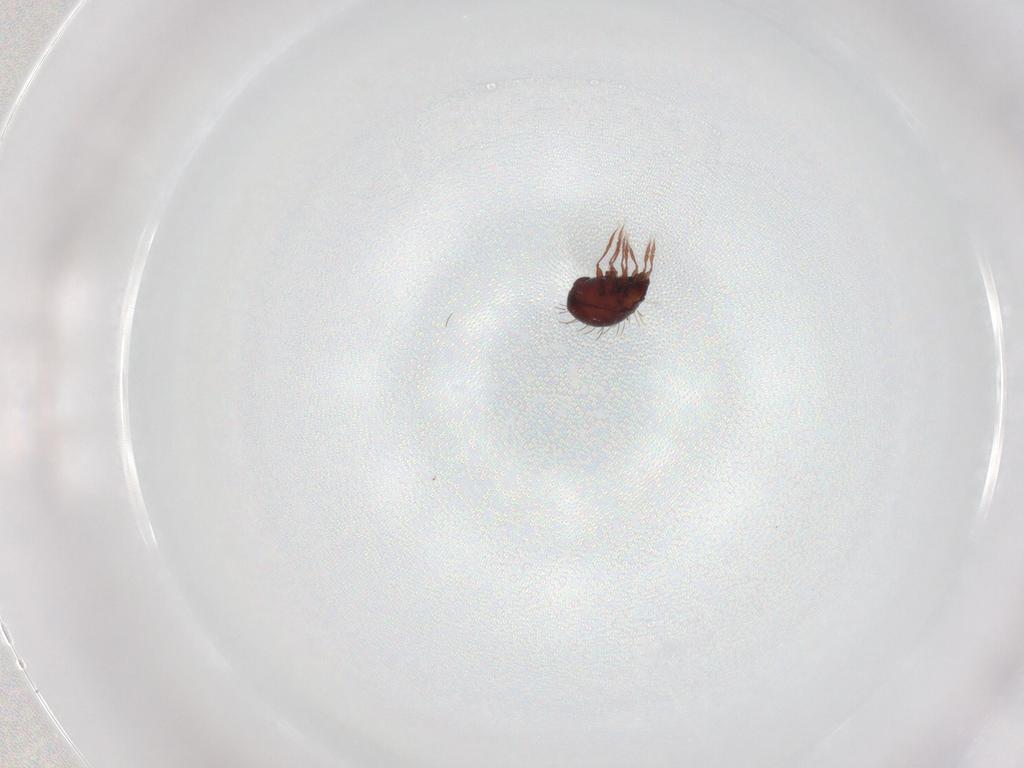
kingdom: Animalia
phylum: Arthropoda
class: Arachnida
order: Sarcoptiformes
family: Caloppiidae
